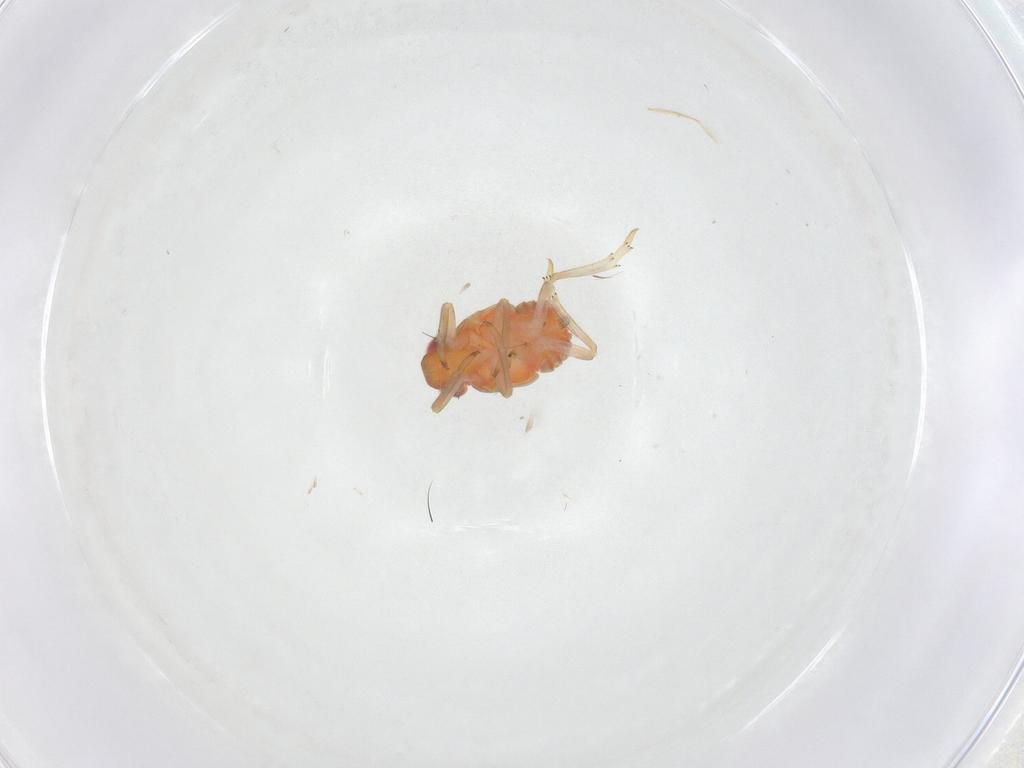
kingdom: Animalia
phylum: Arthropoda
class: Insecta
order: Hemiptera
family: Fulgoroidea_incertae_sedis
